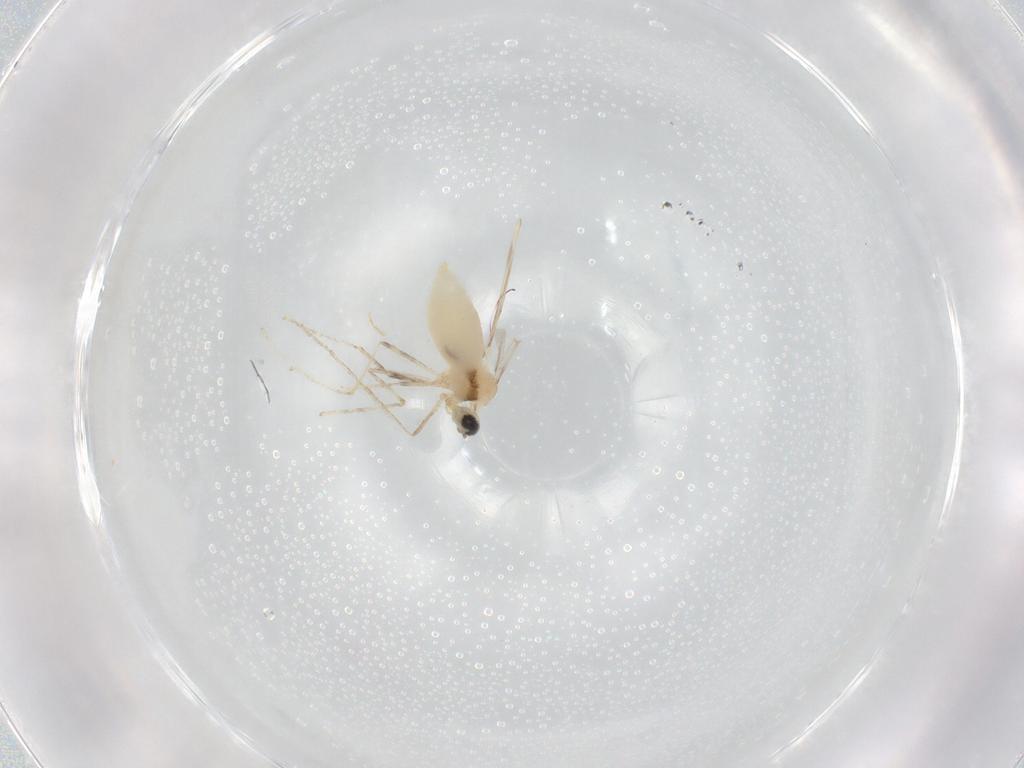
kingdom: Animalia
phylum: Arthropoda
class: Insecta
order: Diptera
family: Cecidomyiidae
